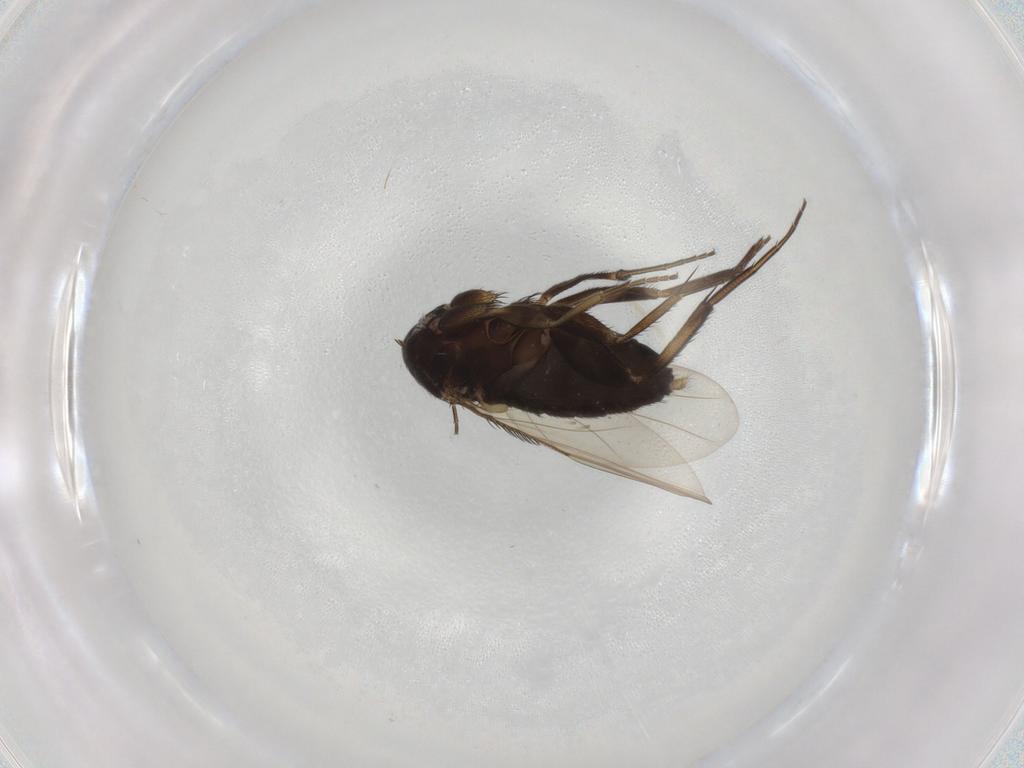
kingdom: Animalia
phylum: Arthropoda
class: Insecta
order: Diptera
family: Phoridae
